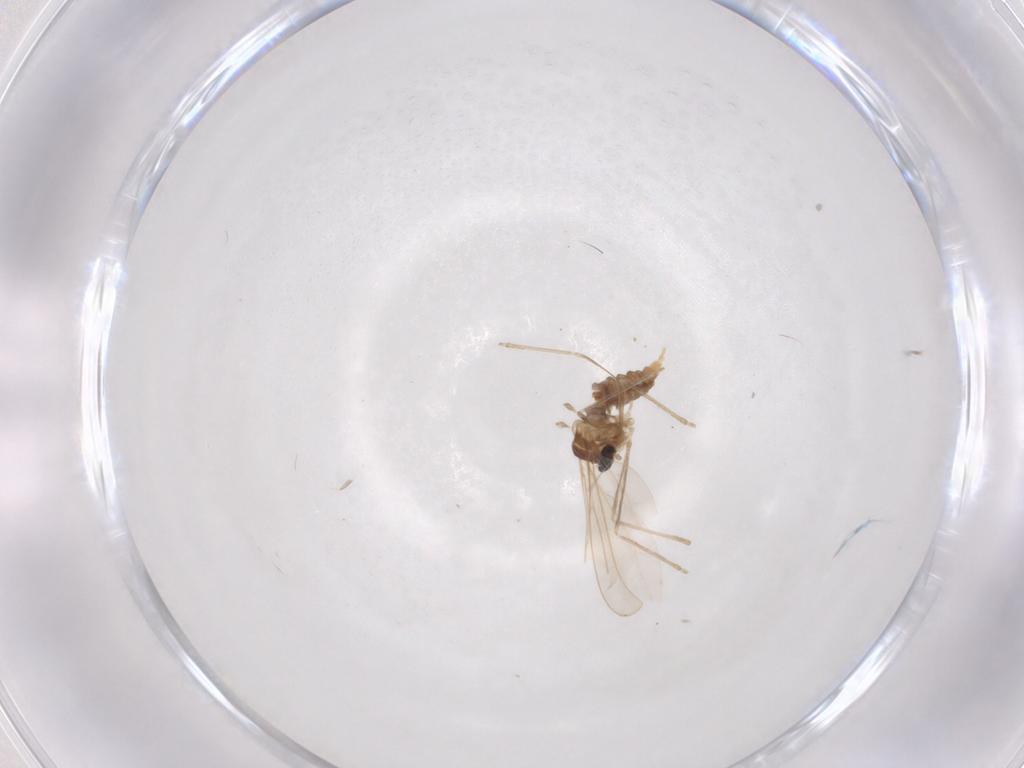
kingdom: Animalia
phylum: Arthropoda
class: Insecta
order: Diptera
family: Cecidomyiidae
